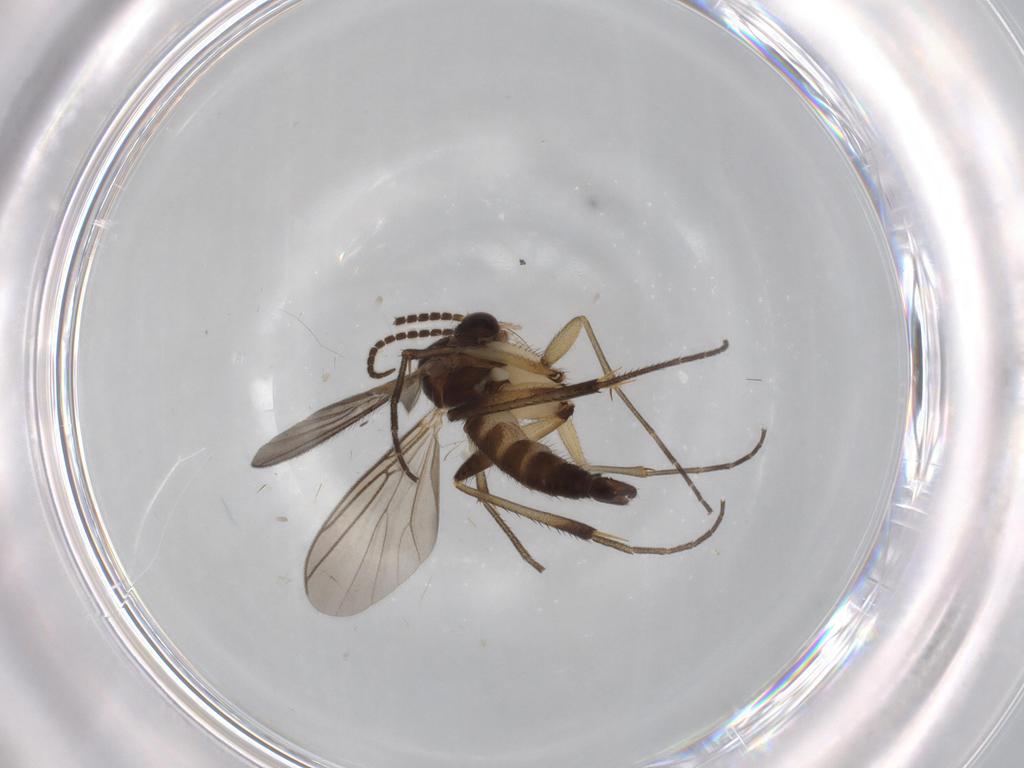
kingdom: Animalia
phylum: Arthropoda
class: Insecta
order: Diptera
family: Mycetophilidae
